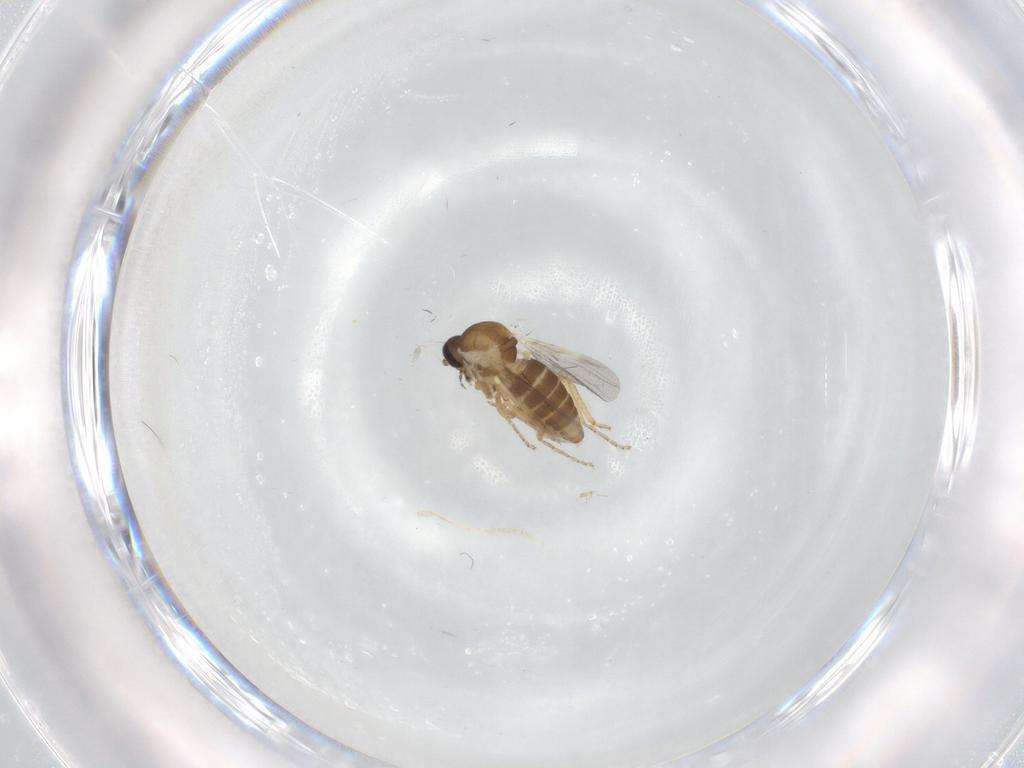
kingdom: Animalia
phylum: Arthropoda
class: Insecta
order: Diptera
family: Ceratopogonidae
